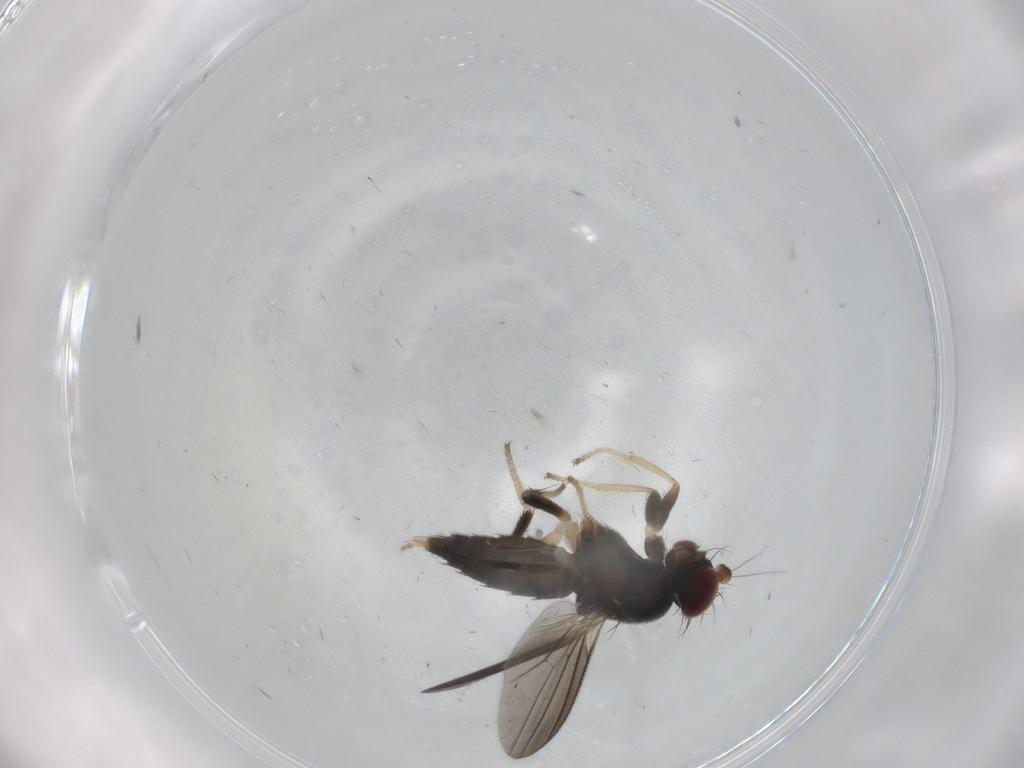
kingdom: Animalia
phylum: Arthropoda
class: Insecta
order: Diptera
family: Clusiidae
